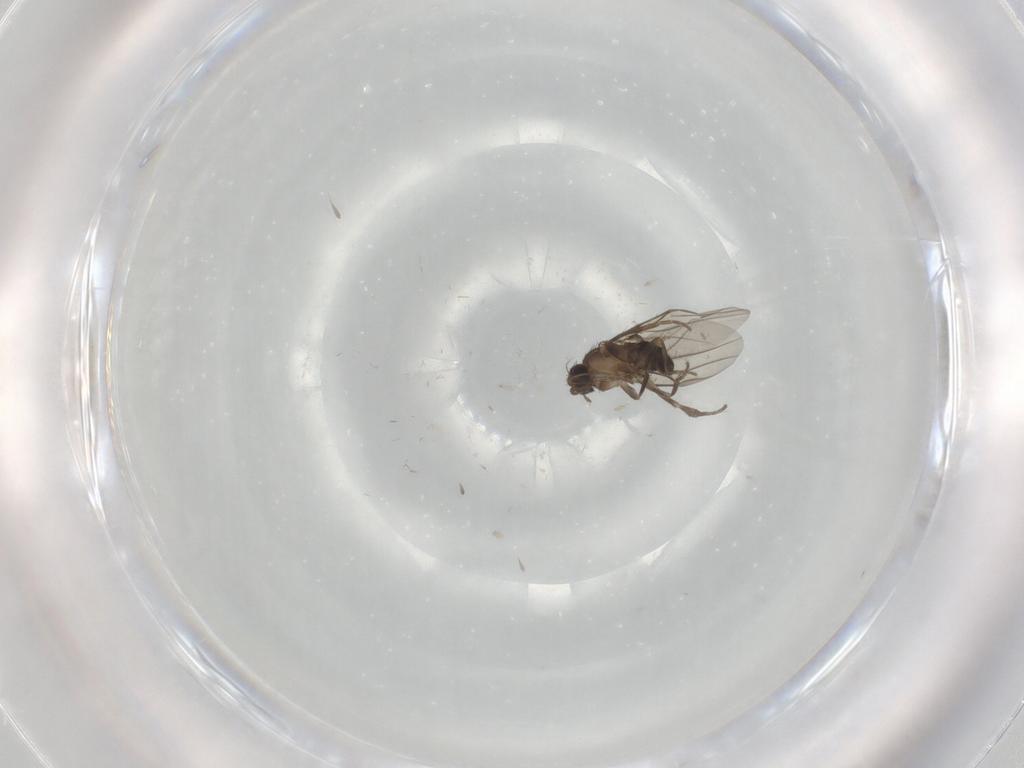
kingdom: Animalia
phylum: Arthropoda
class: Insecta
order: Diptera
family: Phoridae
